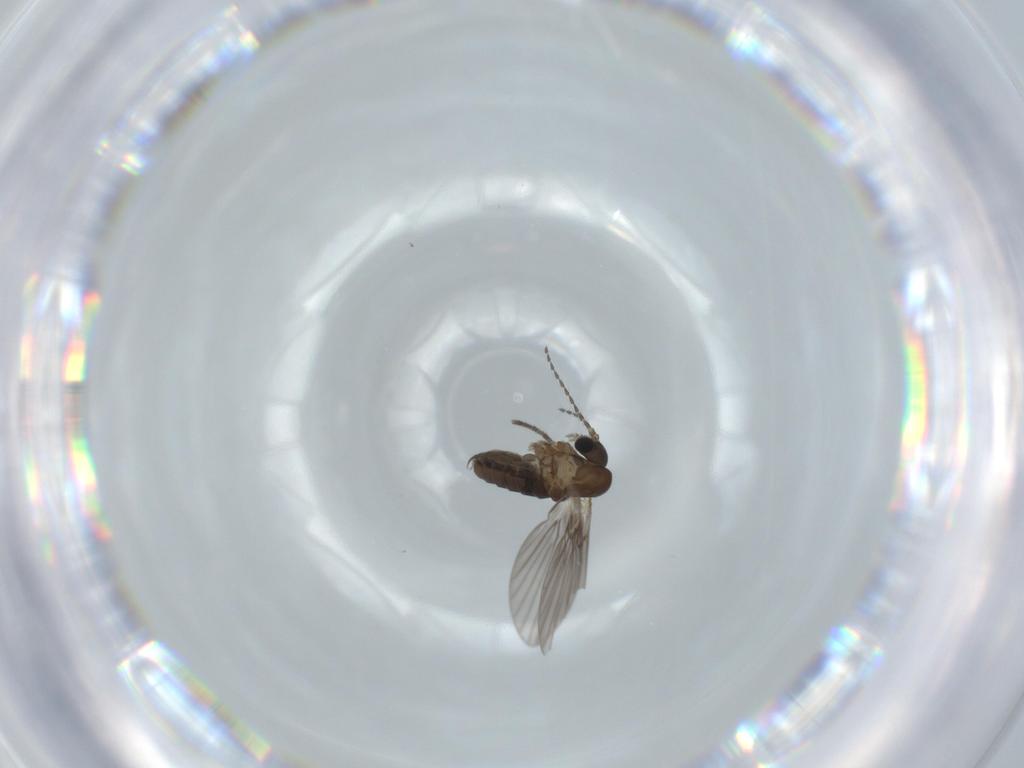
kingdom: Animalia
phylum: Arthropoda
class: Insecta
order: Diptera
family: Psychodidae
